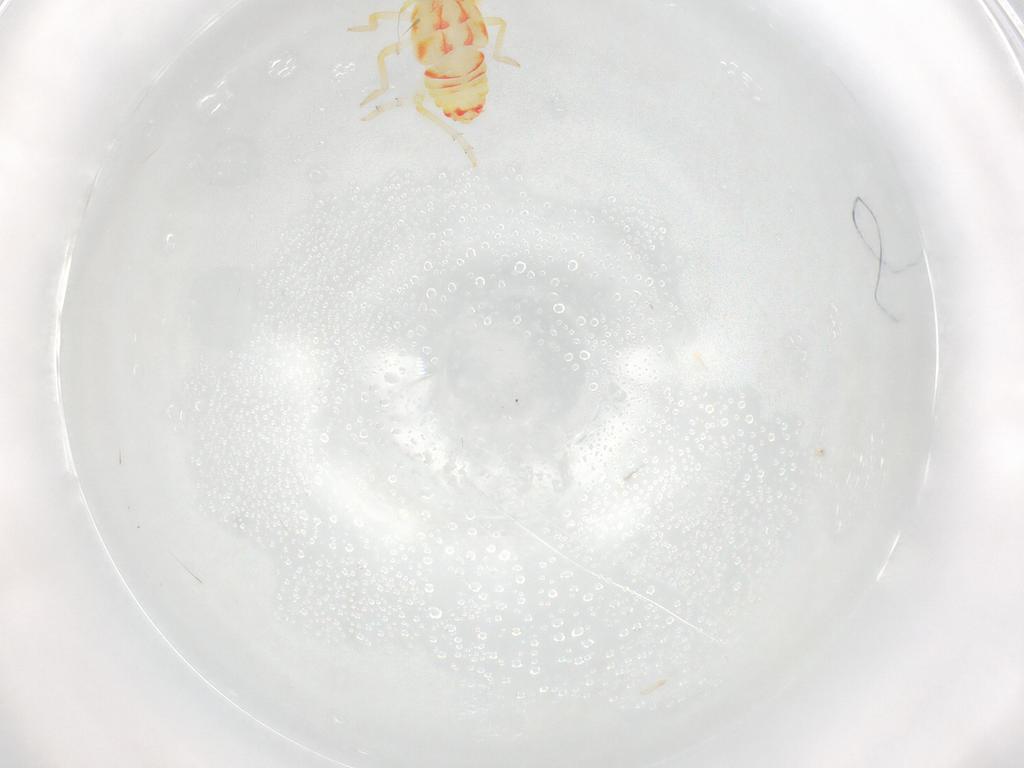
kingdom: Animalia
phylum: Arthropoda
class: Insecta
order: Hemiptera
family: Tropiduchidae
